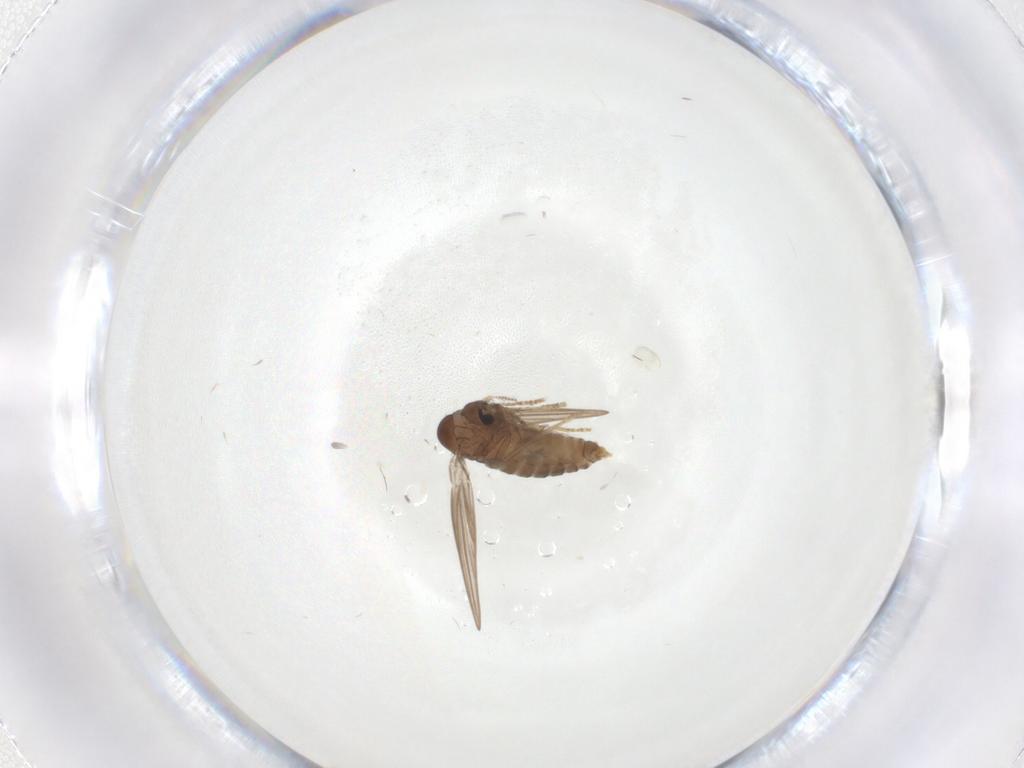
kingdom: Animalia
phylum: Arthropoda
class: Insecta
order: Diptera
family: Psychodidae
